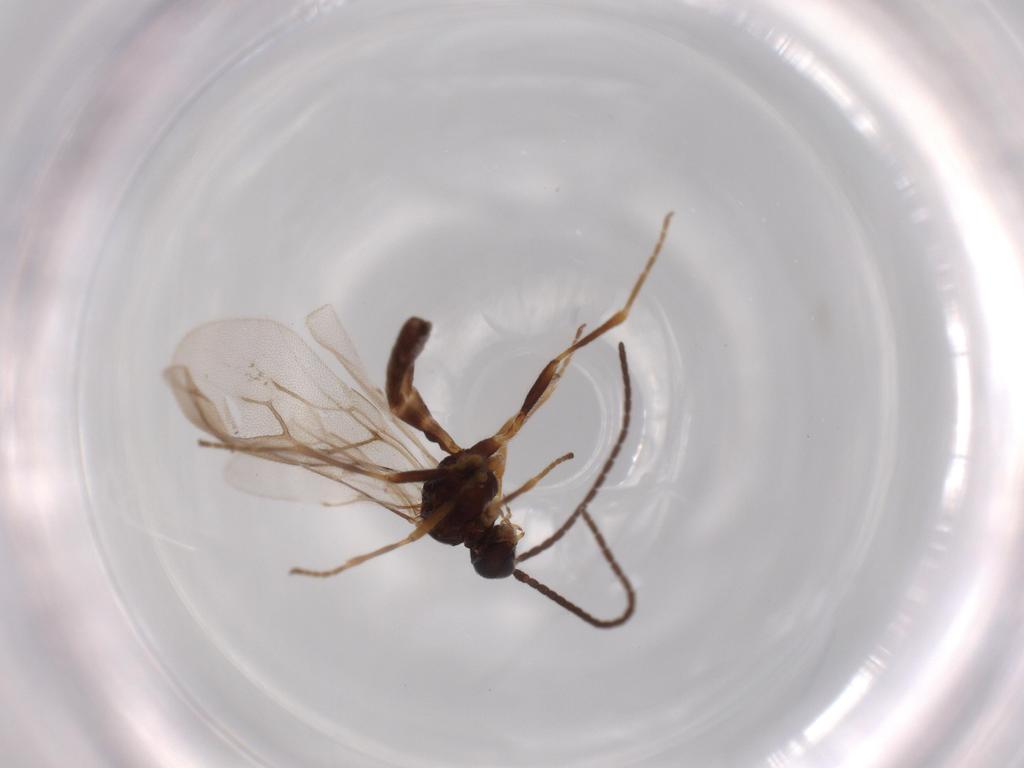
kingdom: Animalia
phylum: Arthropoda
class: Insecta
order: Hymenoptera
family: Braconidae
